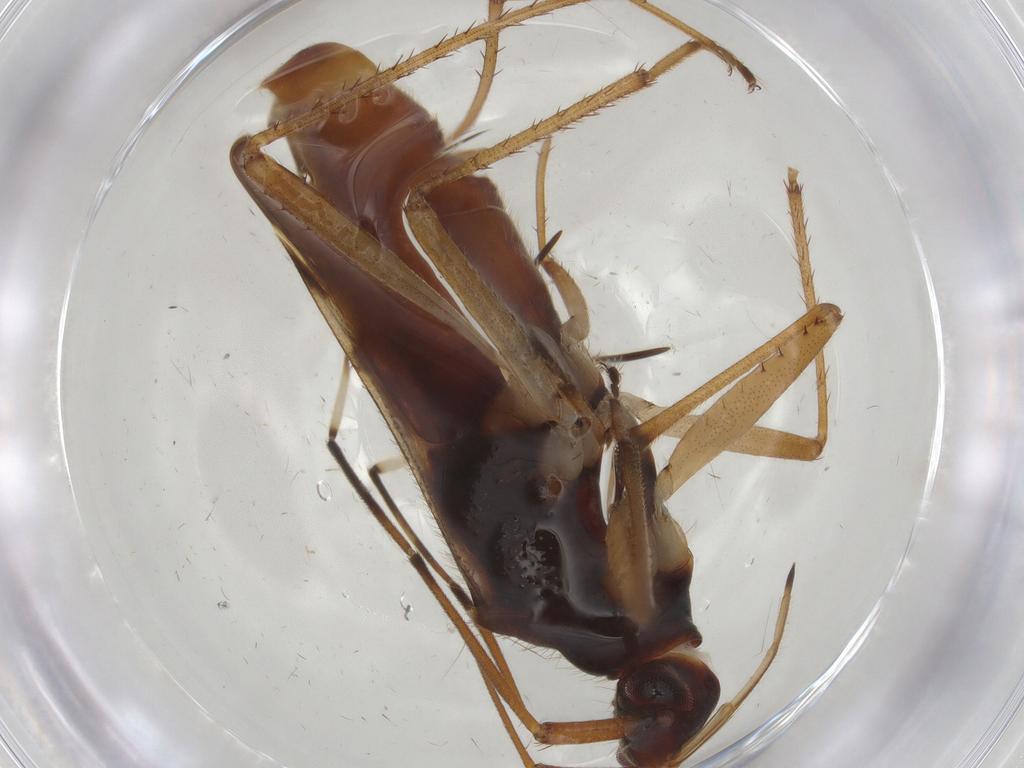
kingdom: Animalia
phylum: Arthropoda
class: Insecta
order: Hemiptera
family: Rhyparochromidae
